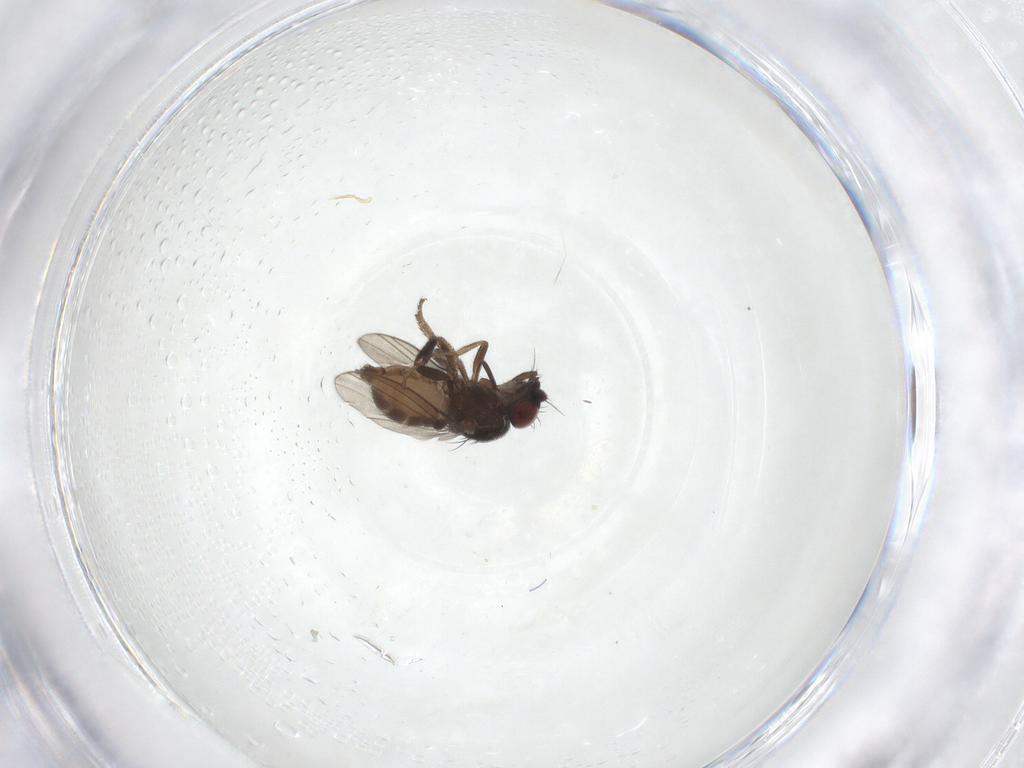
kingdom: Animalia
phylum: Arthropoda
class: Insecta
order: Diptera
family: Milichiidae
